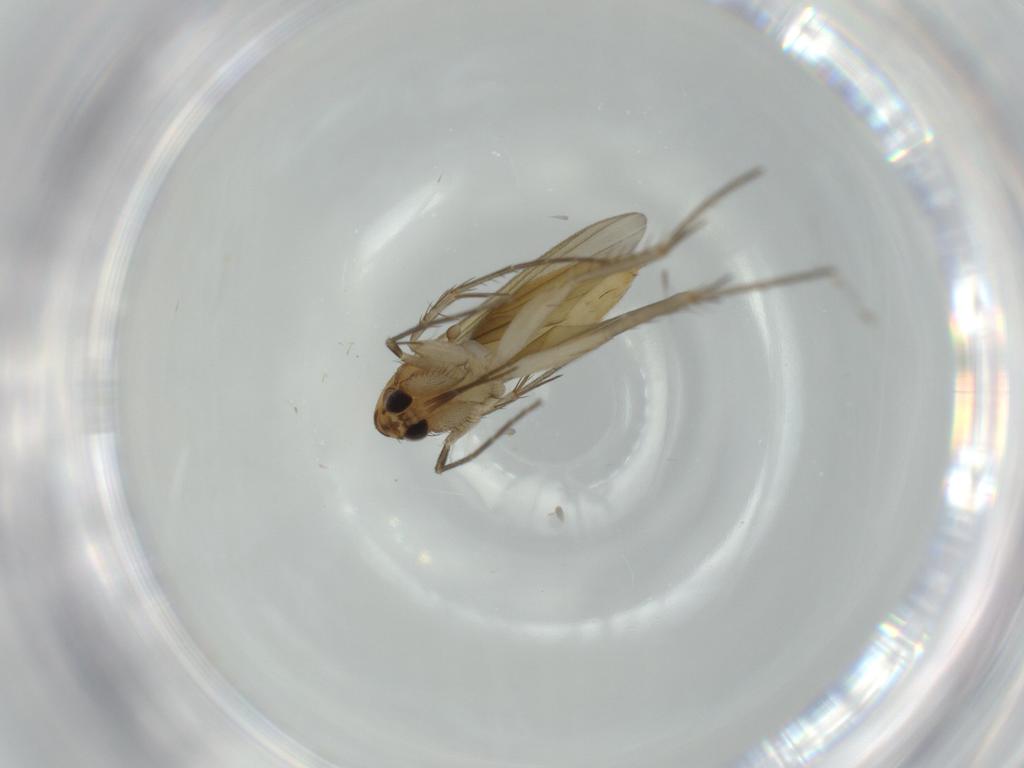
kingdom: Animalia
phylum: Arthropoda
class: Insecta
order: Diptera
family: Mycetophilidae
